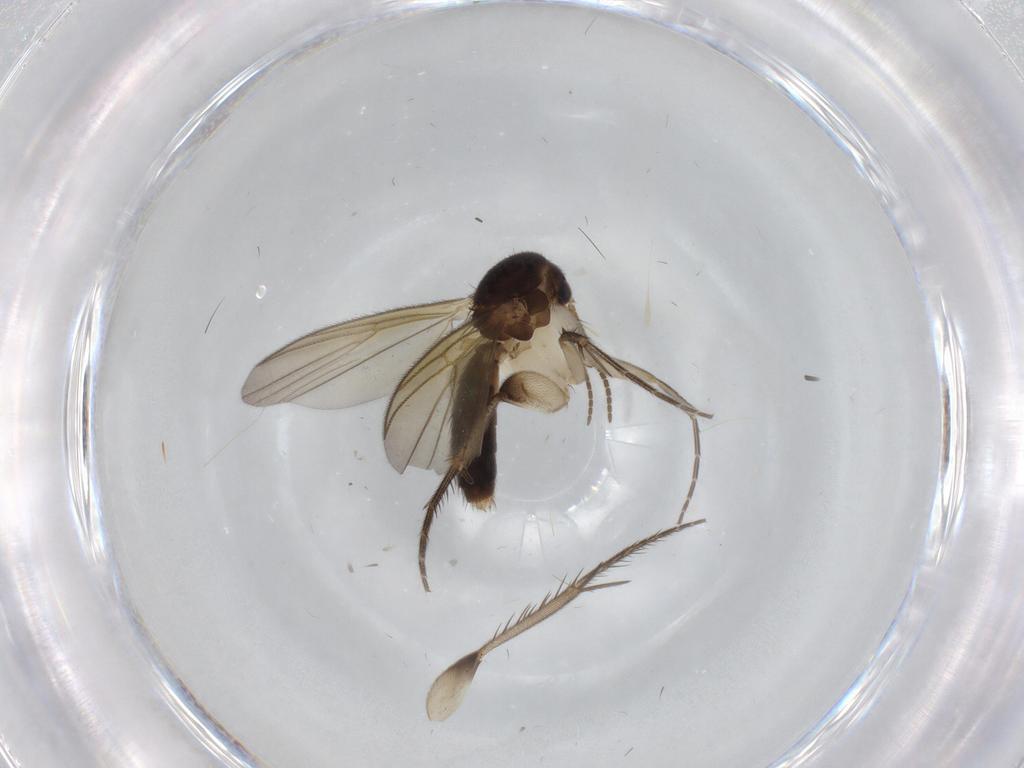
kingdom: Animalia
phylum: Arthropoda
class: Insecta
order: Diptera
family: Mycetophilidae
